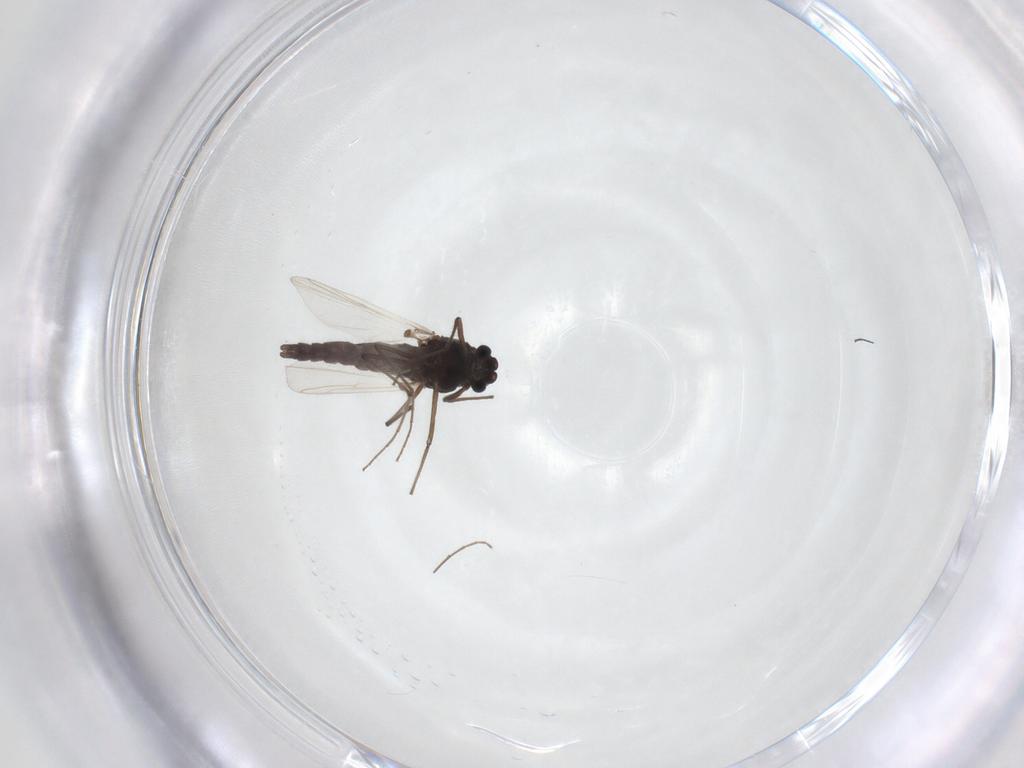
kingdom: Animalia
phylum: Arthropoda
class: Insecta
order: Diptera
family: Chironomidae
